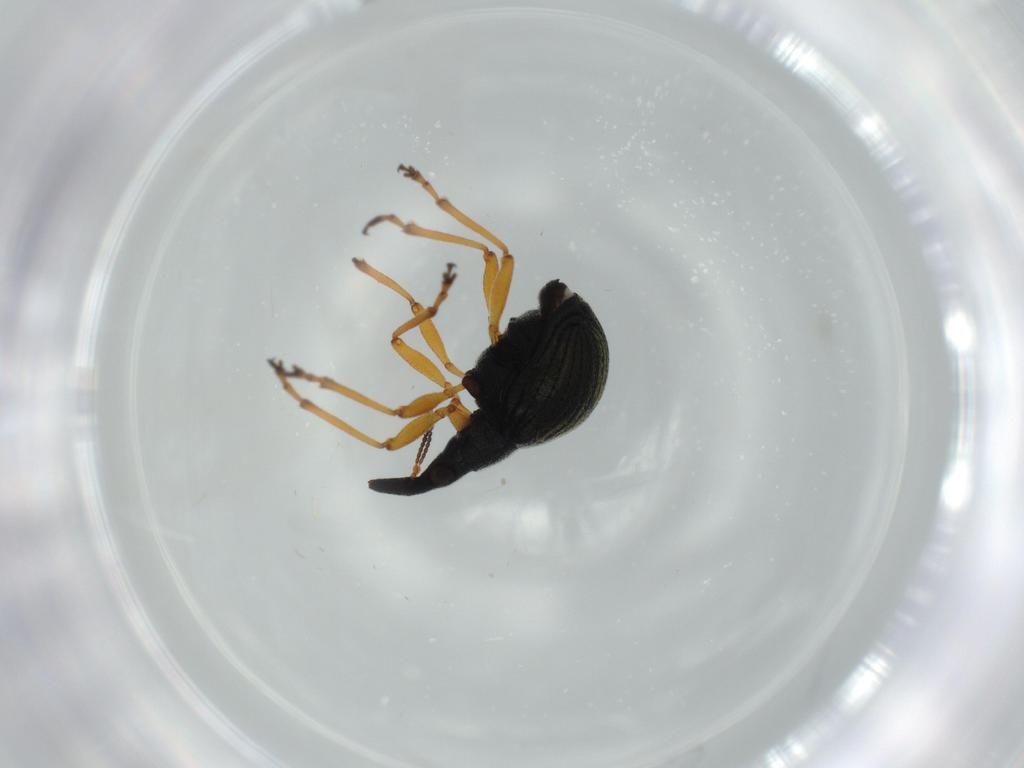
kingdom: Animalia
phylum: Arthropoda
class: Insecta
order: Coleoptera
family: Brentidae
